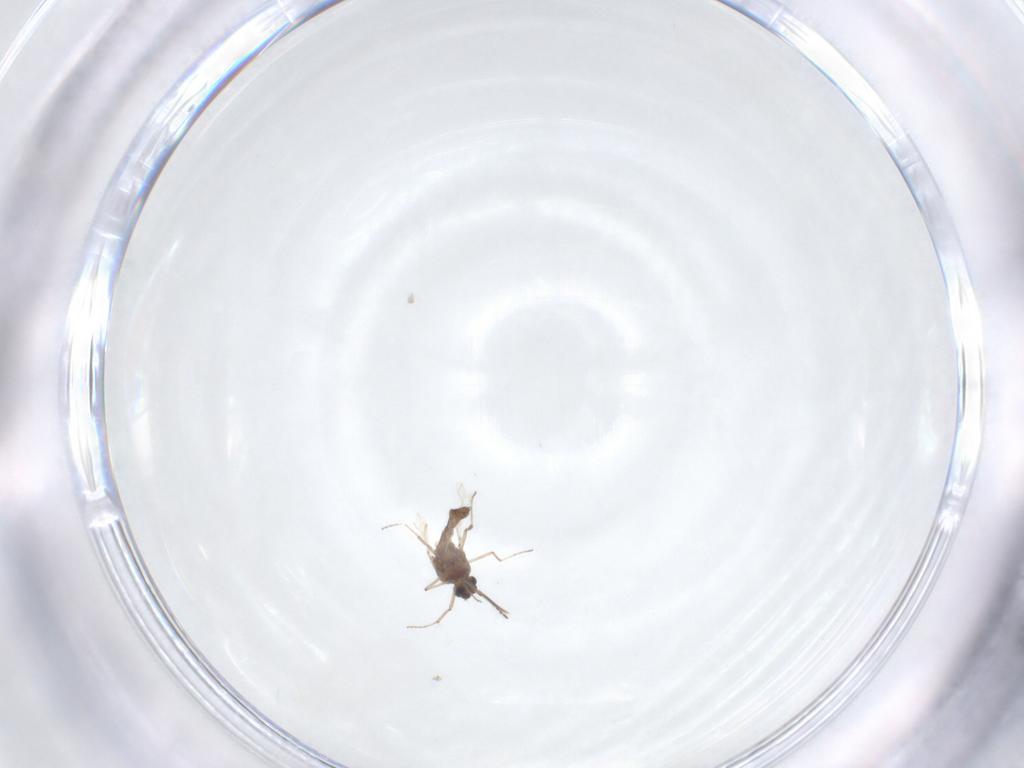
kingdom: Animalia
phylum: Arthropoda
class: Insecta
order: Diptera
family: Ceratopogonidae
